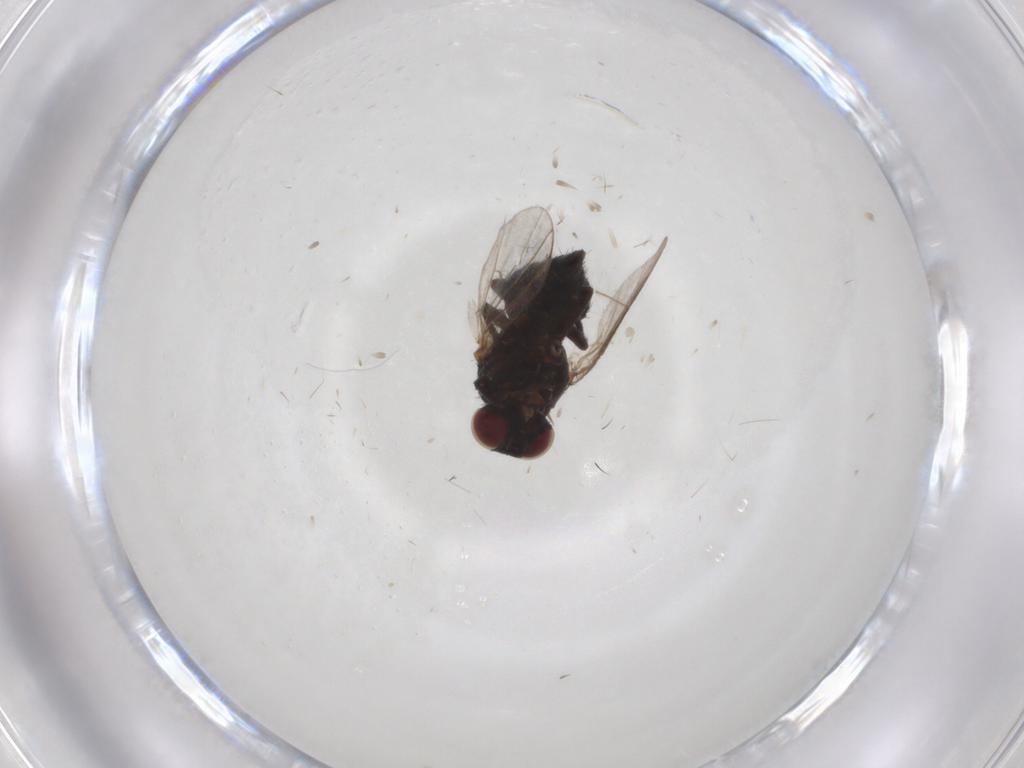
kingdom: Animalia
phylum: Arthropoda
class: Insecta
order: Diptera
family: Agromyzidae
